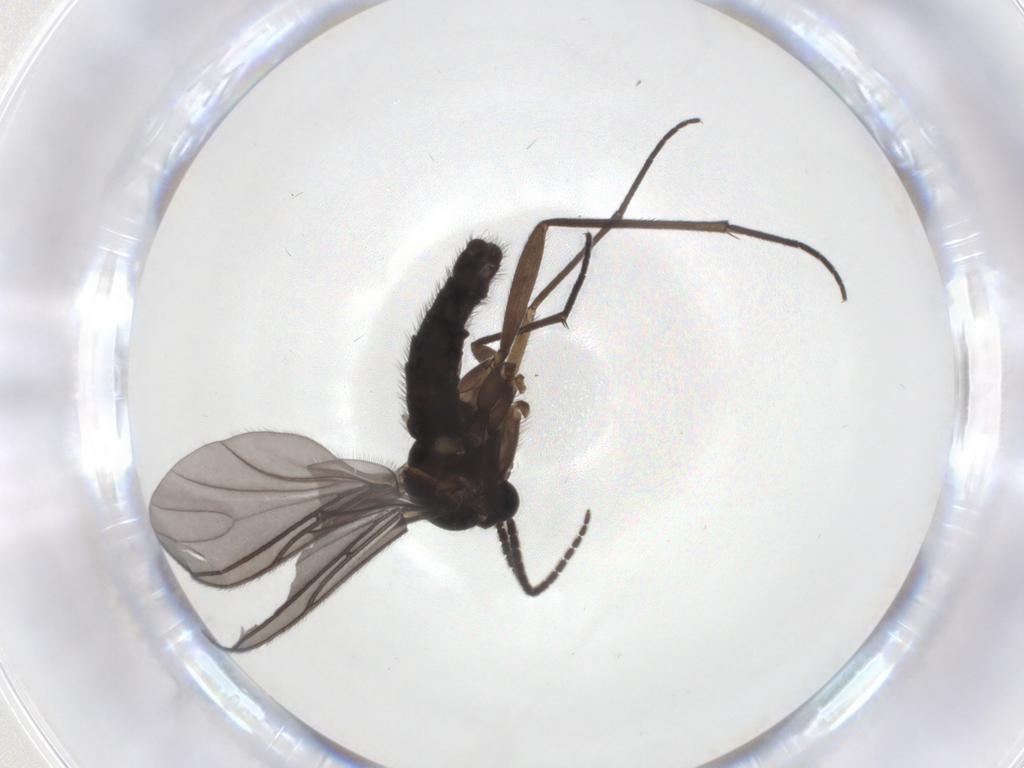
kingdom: Animalia
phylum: Arthropoda
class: Insecta
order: Diptera
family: Sciaridae
